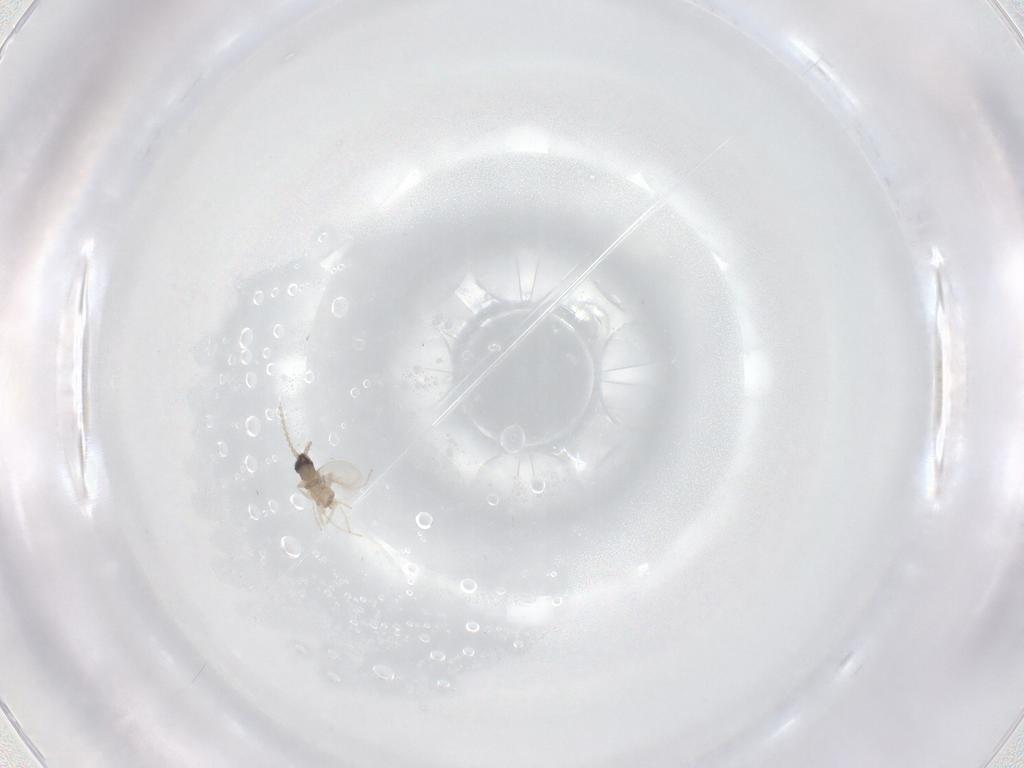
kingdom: Animalia
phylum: Arthropoda
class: Insecta
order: Diptera
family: Cecidomyiidae
